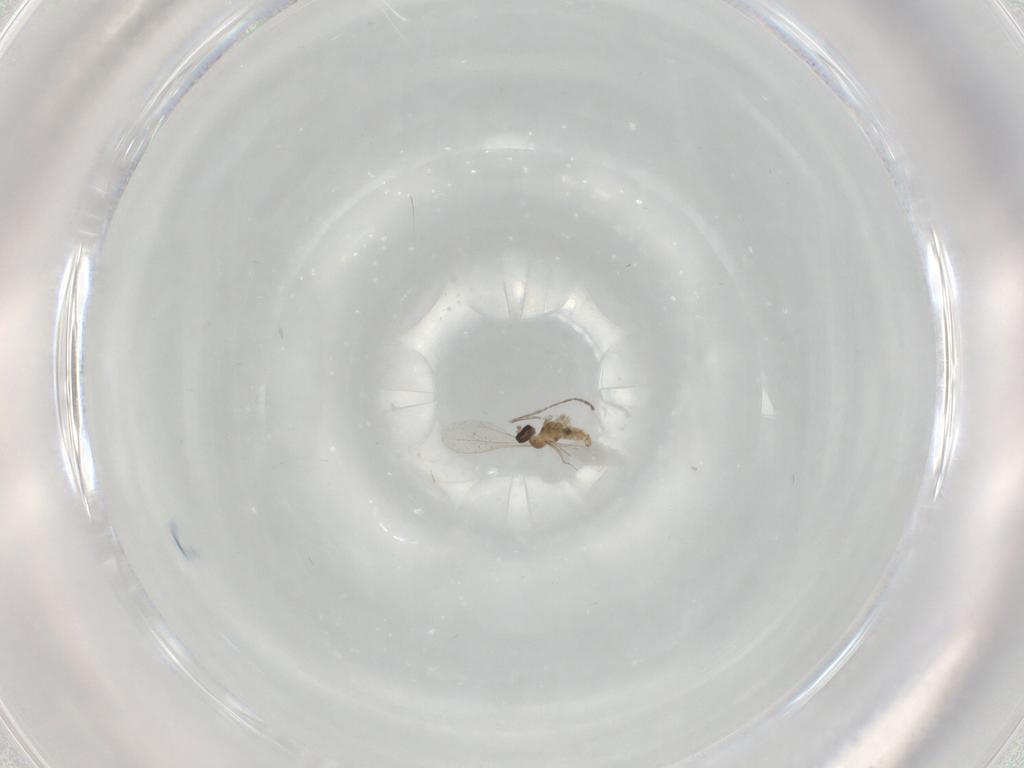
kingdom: Animalia
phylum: Arthropoda
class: Insecta
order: Diptera
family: Cecidomyiidae
